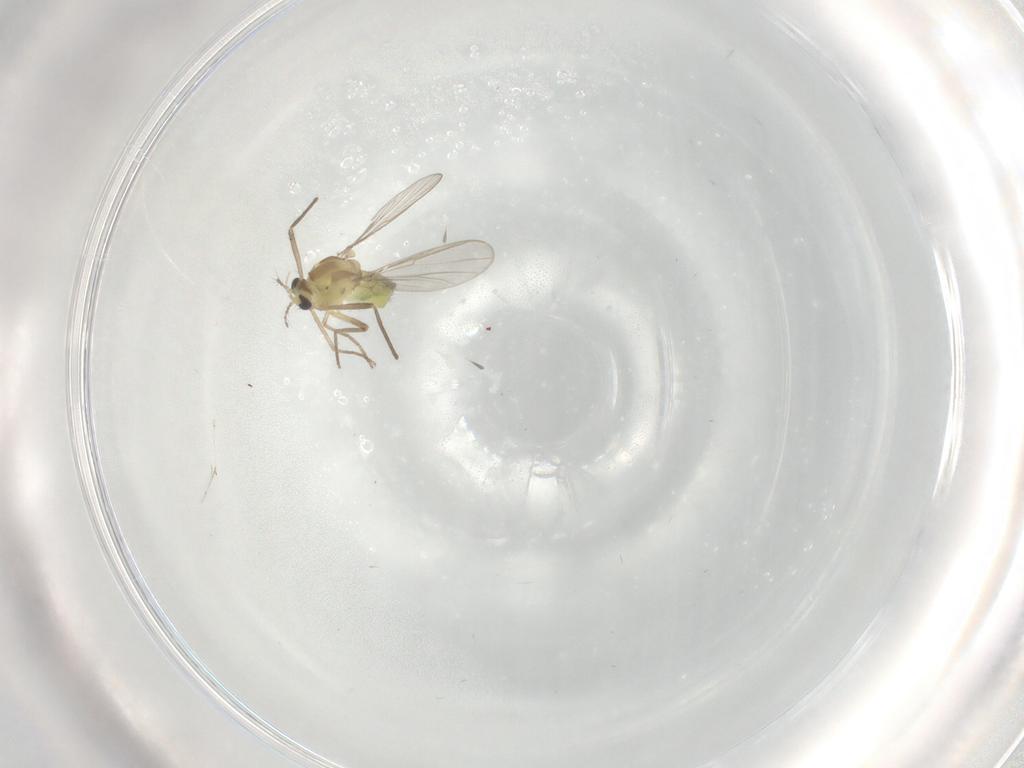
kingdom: Animalia
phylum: Arthropoda
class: Insecta
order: Diptera
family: Chironomidae
